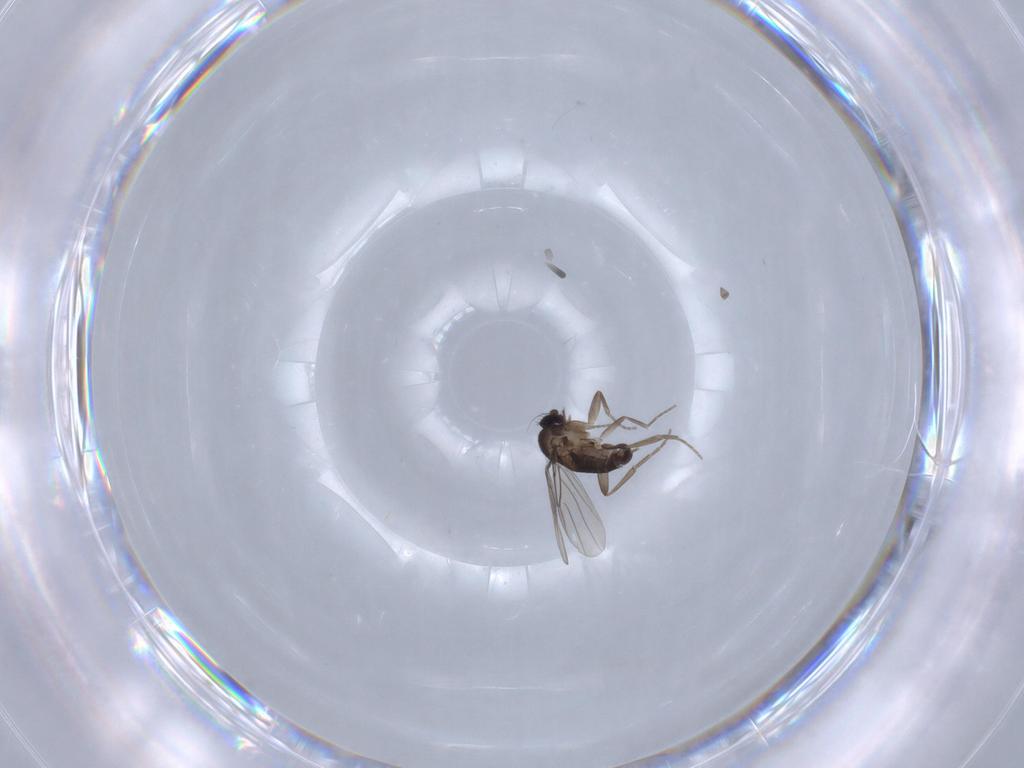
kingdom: Animalia
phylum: Arthropoda
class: Insecta
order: Diptera
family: Phoridae
